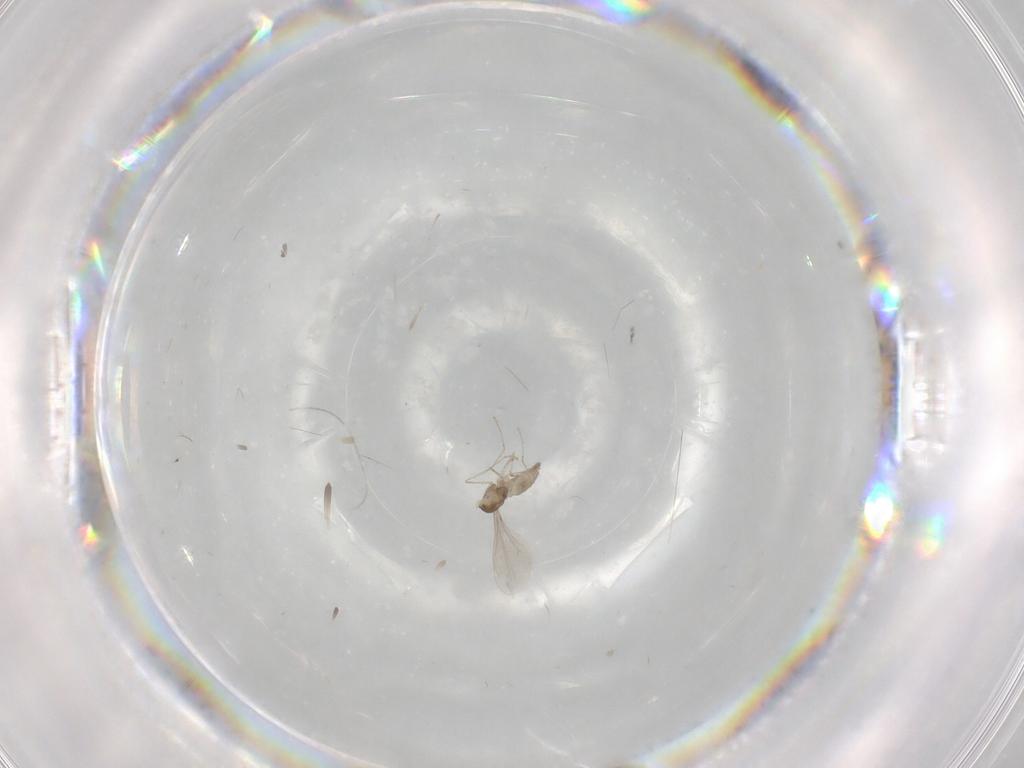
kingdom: Animalia
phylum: Arthropoda
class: Insecta
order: Diptera
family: Cecidomyiidae
